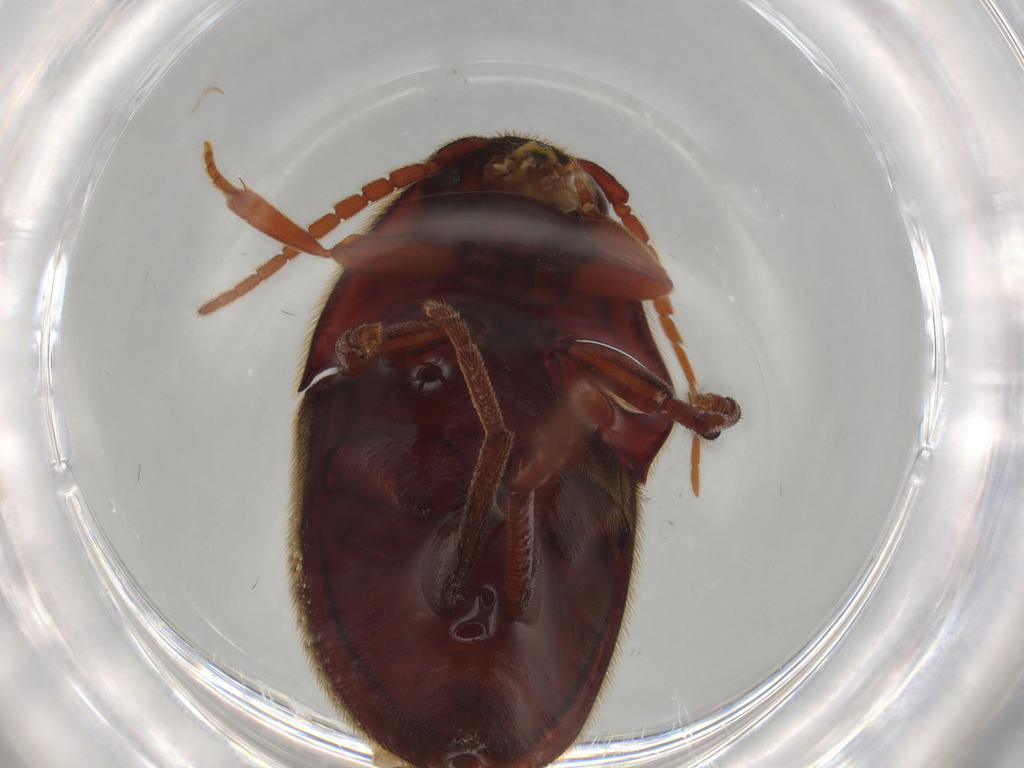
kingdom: Animalia
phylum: Arthropoda
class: Insecta
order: Coleoptera
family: Eucnemidae
